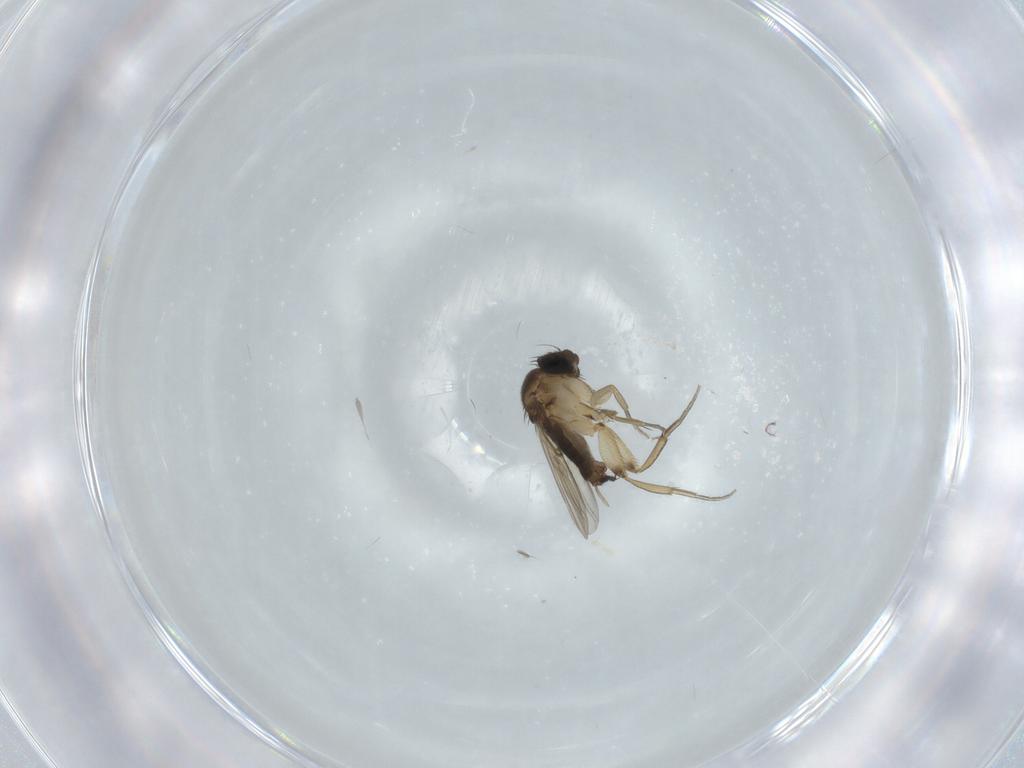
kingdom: Animalia
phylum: Arthropoda
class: Insecta
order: Diptera
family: Phoridae
